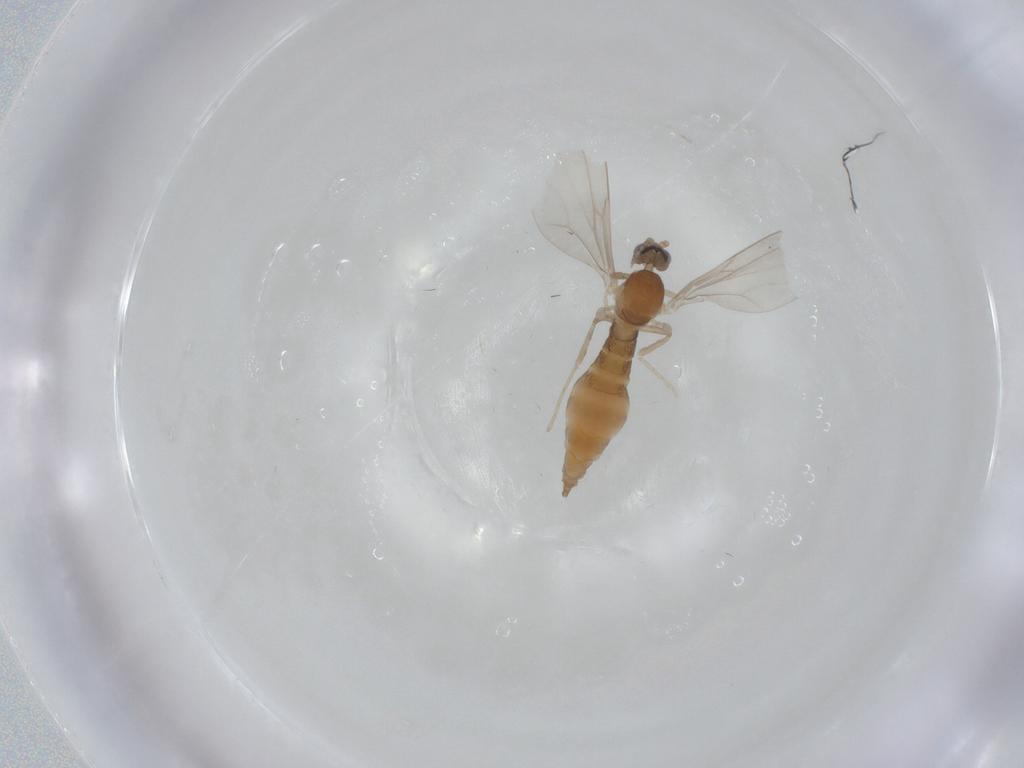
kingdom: Animalia
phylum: Arthropoda
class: Insecta
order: Diptera
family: Cecidomyiidae
